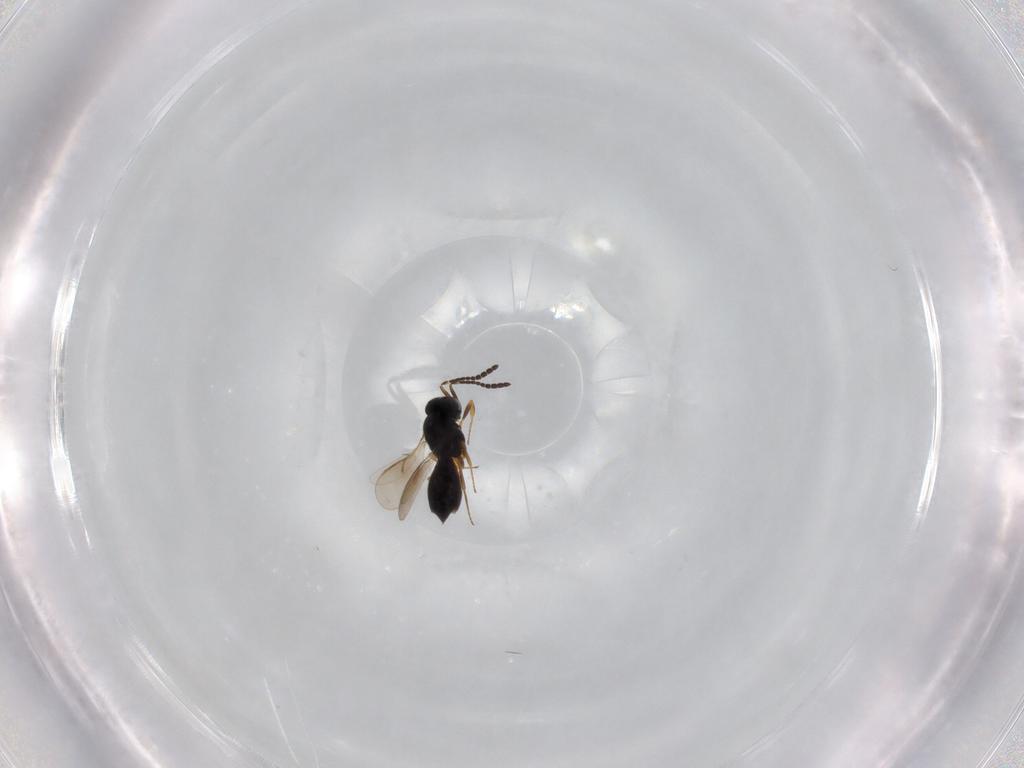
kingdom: Animalia
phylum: Arthropoda
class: Insecta
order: Hymenoptera
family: Scelionidae
